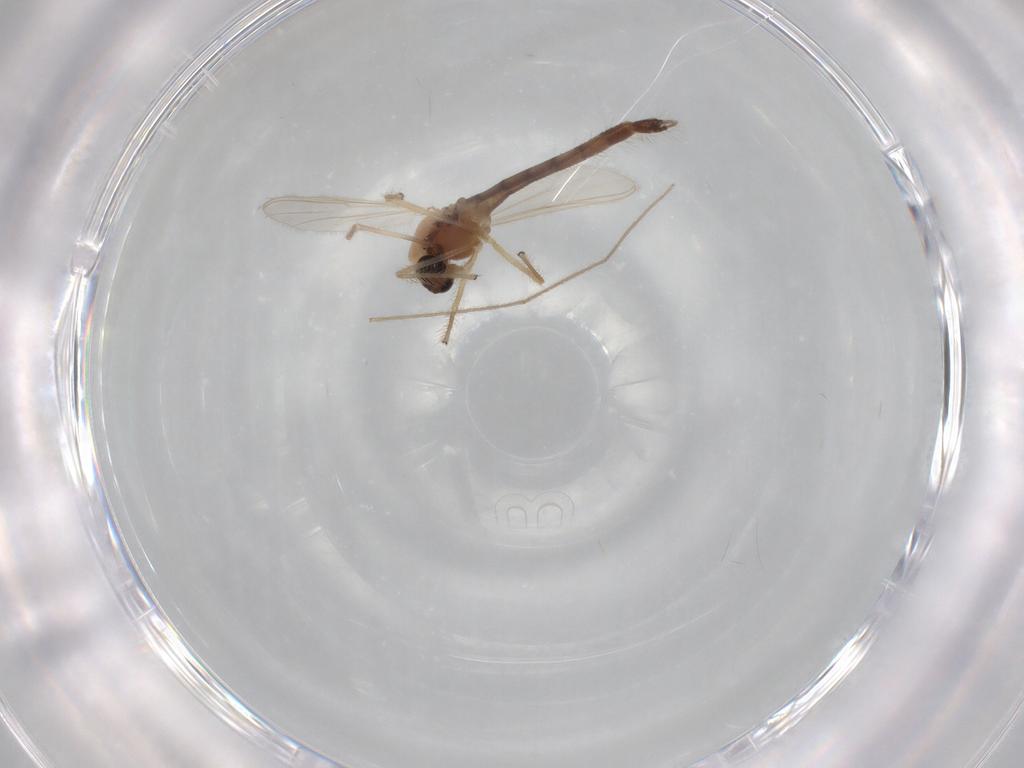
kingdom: Animalia
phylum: Arthropoda
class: Insecta
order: Diptera
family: Chironomidae
